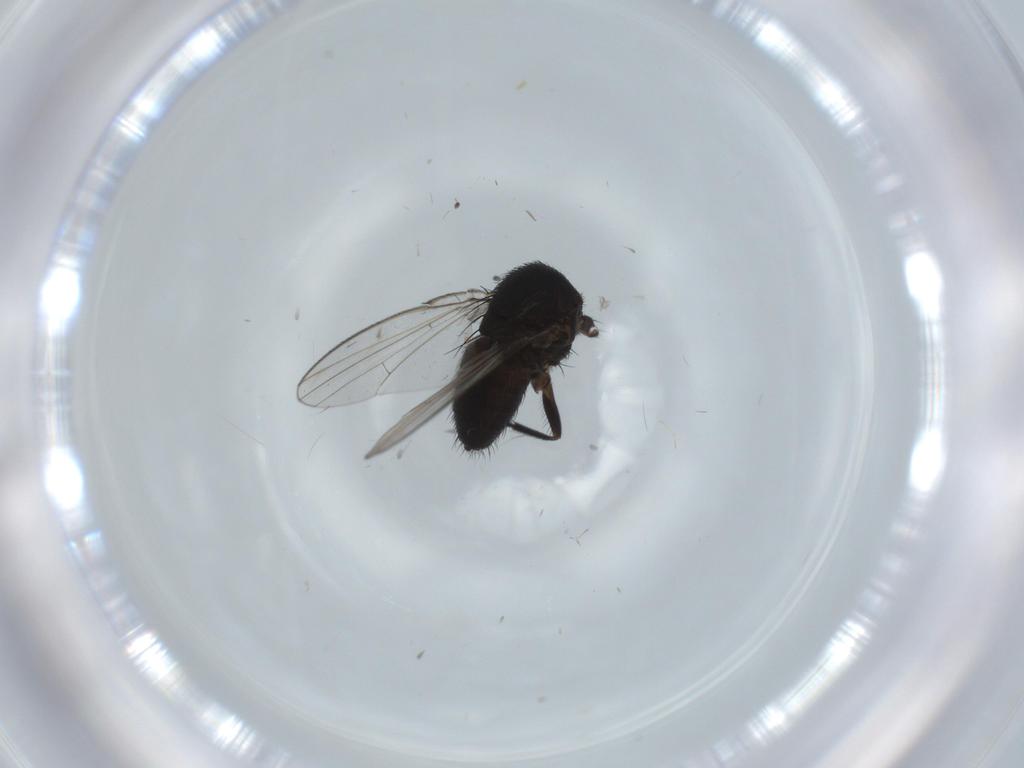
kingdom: Animalia
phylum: Arthropoda
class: Insecta
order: Diptera
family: Milichiidae
